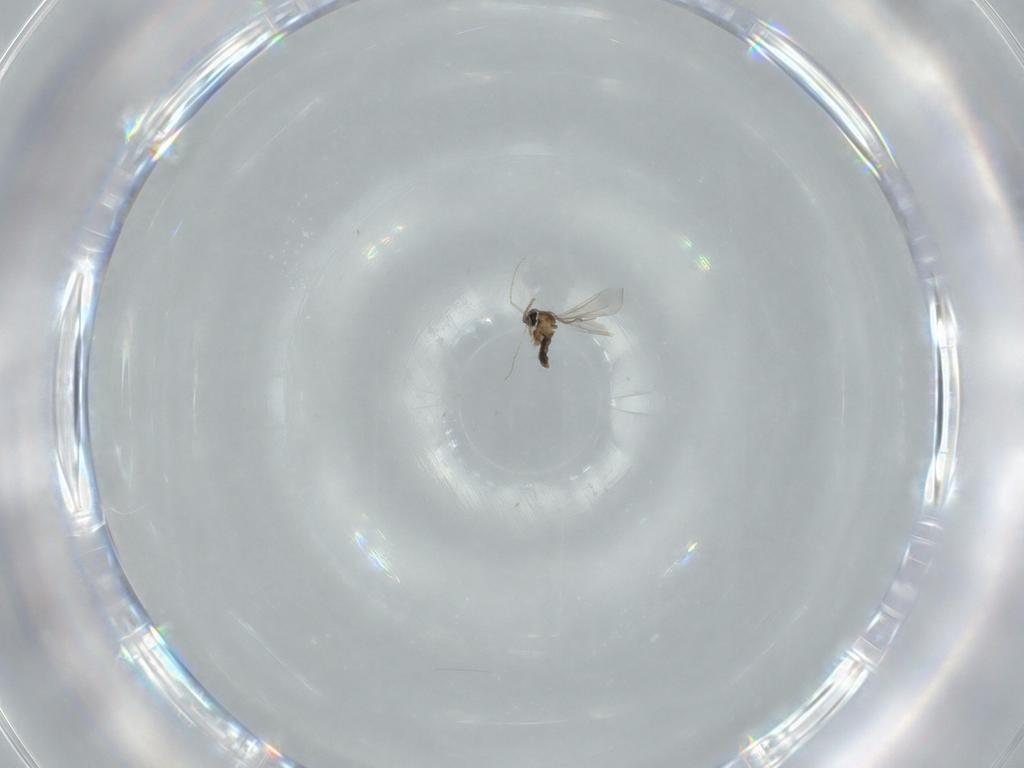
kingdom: Animalia
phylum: Arthropoda
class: Insecta
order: Diptera
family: Cecidomyiidae
